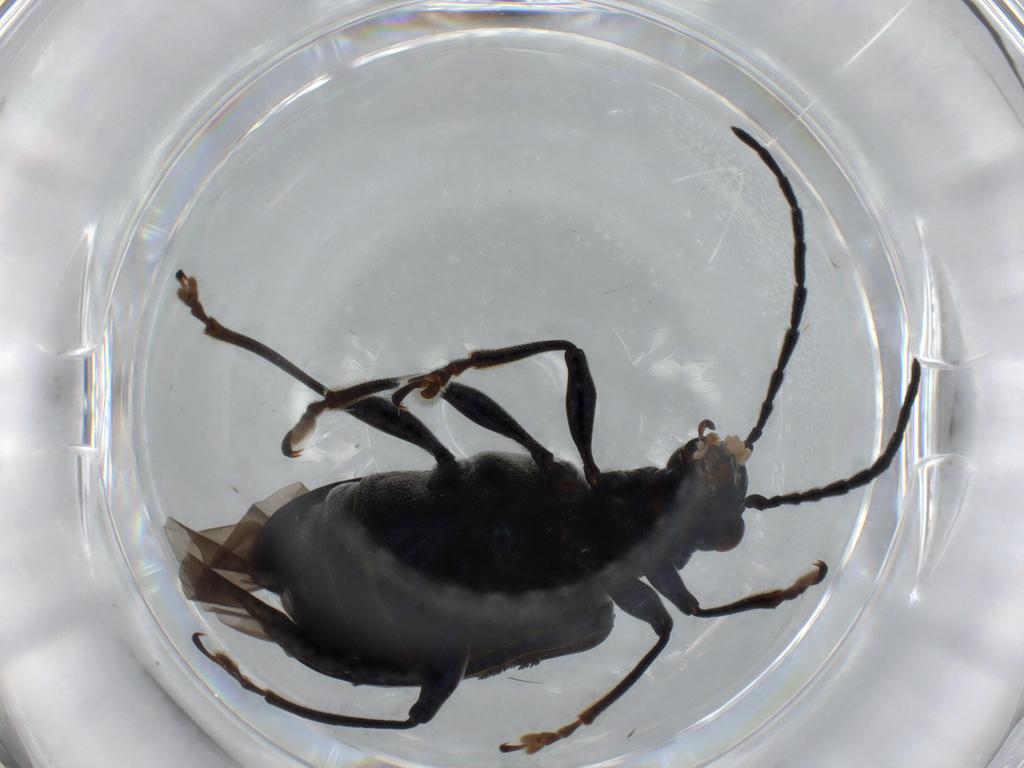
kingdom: Animalia
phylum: Arthropoda
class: Insecta
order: Coleoptera
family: Chrysomelidae
